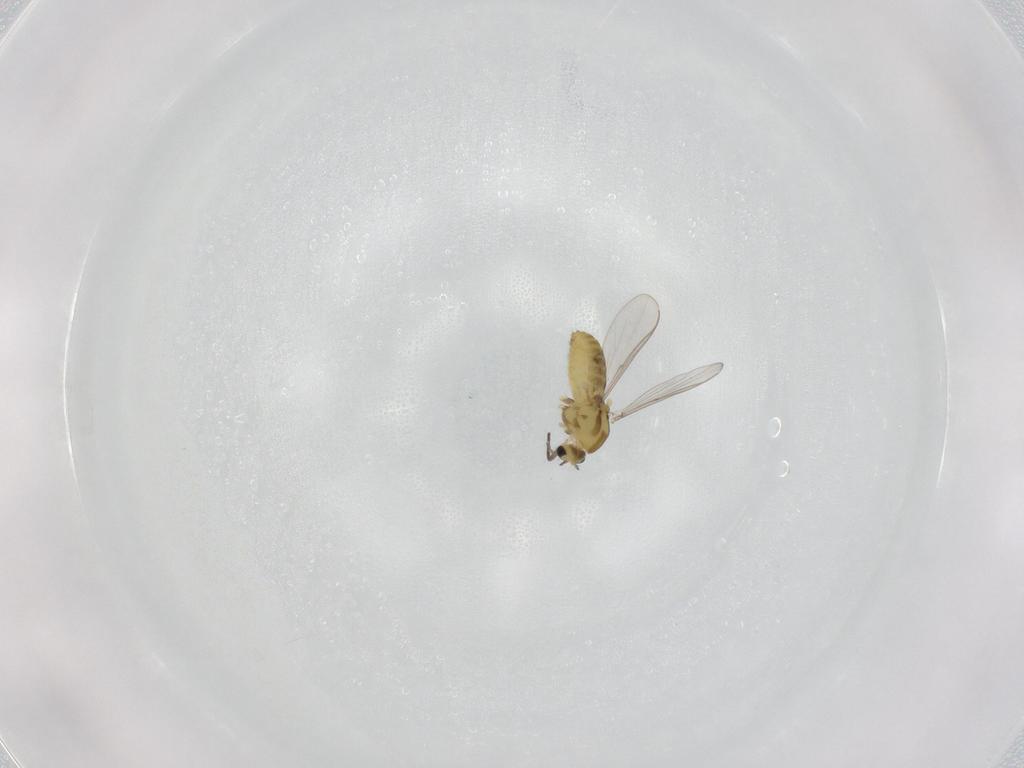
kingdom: Animalia
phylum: Arthropoda
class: Insecta
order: Diptera
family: Chironomidae
